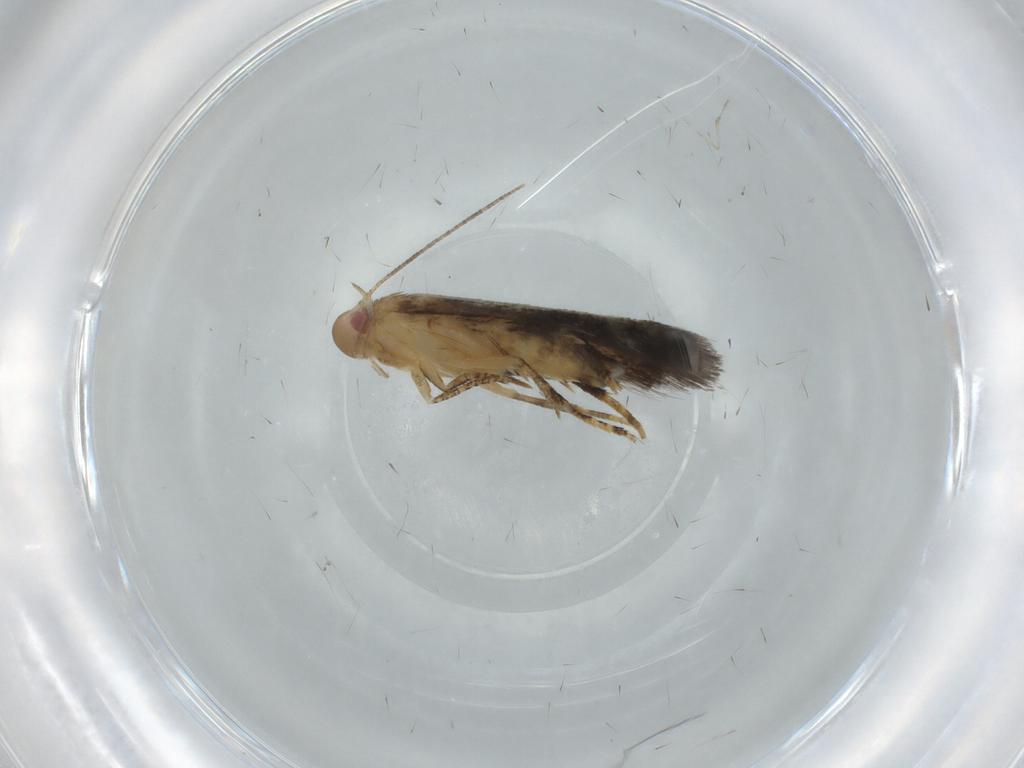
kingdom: Animalia
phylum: Arthropoda
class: Insecta
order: Lepidoptera
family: Momphidae
